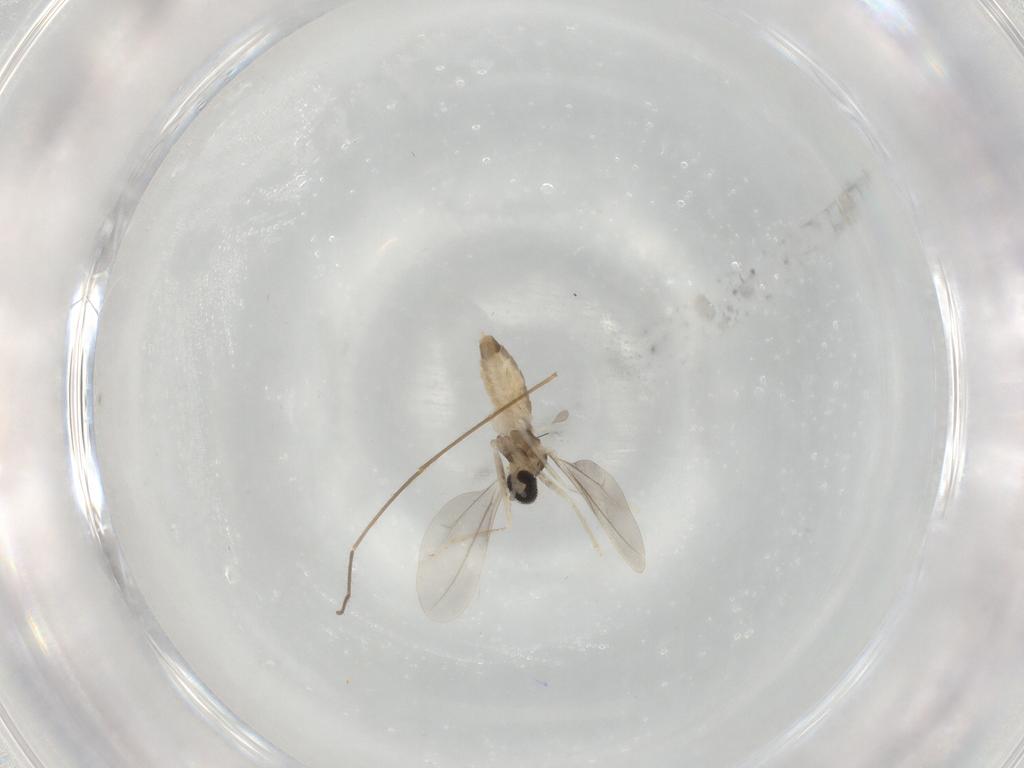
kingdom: Animalia
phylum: Arthropoda
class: Insecta
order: Diptera
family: Cecidomyiidae
